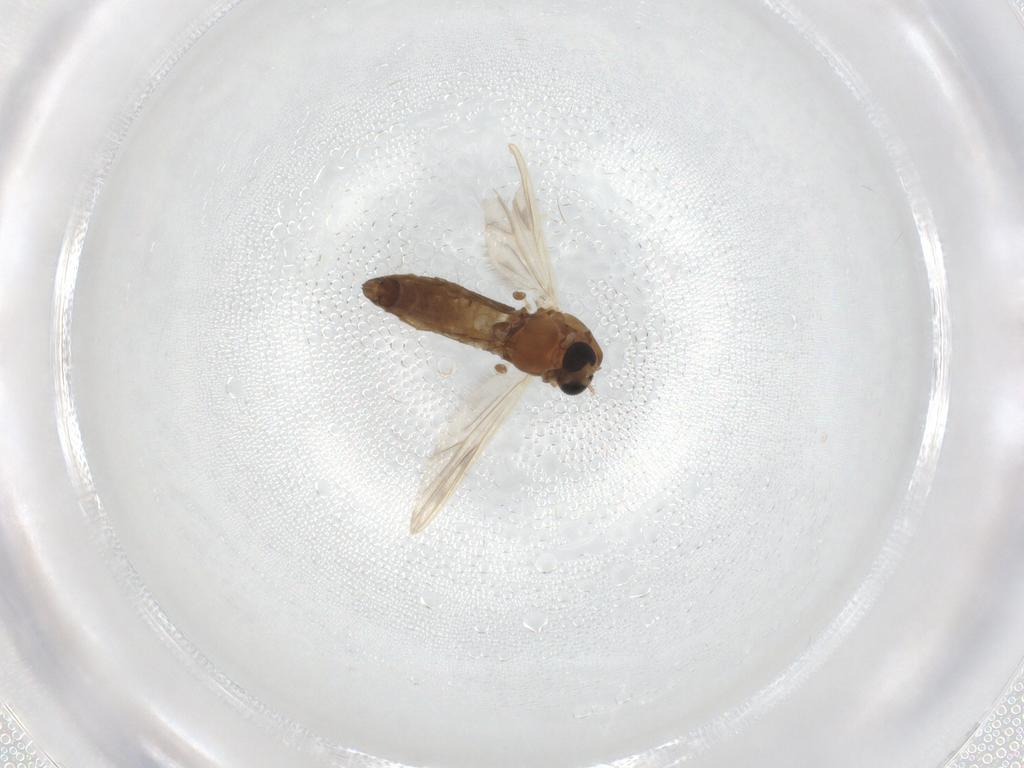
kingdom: Animalia
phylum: Arthropoda
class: Insecta
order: Diptera
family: Chironomidae
